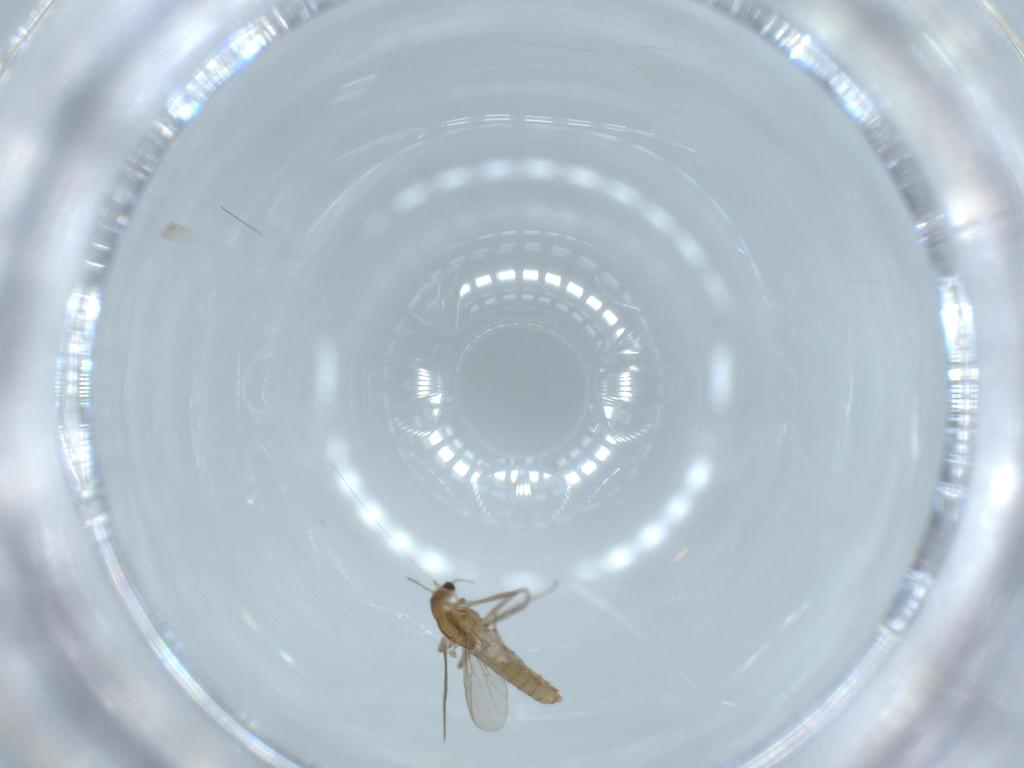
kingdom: Animalia
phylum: Arthropoda
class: Insecta
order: Diptera
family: Chironomidae
